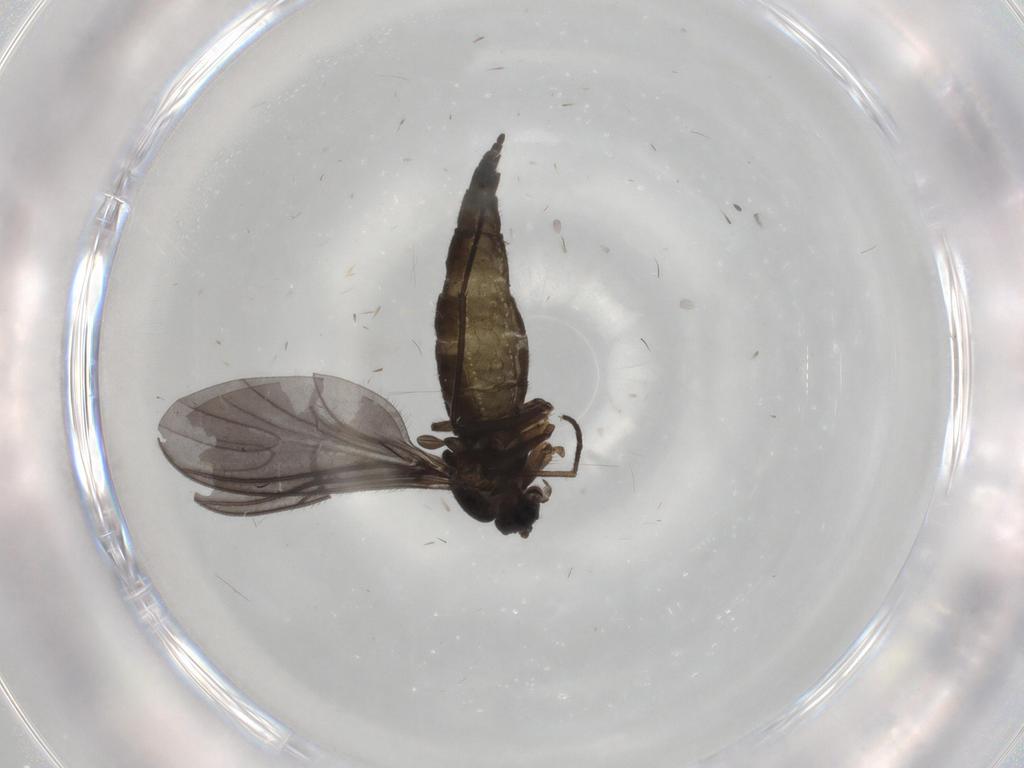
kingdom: Animalia
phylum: Arthropoda
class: Insecta
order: Diptera
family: Sciaridae
